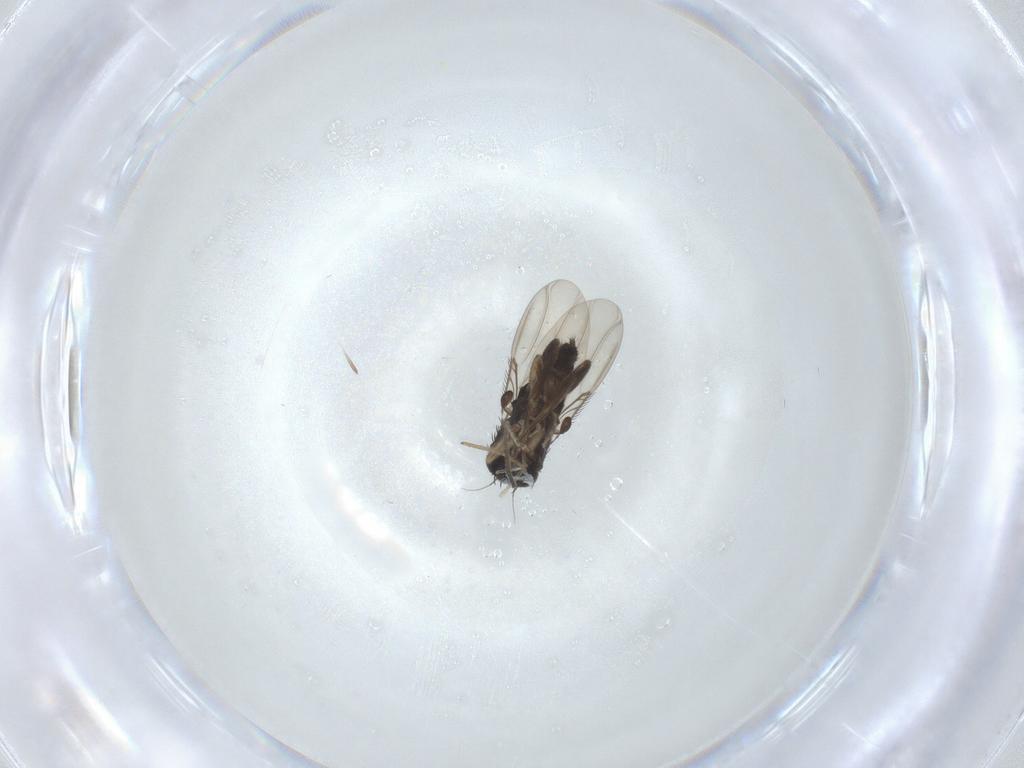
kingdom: Animalia
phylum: Arthropoda
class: Insecta
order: Diptera
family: Phoridae
